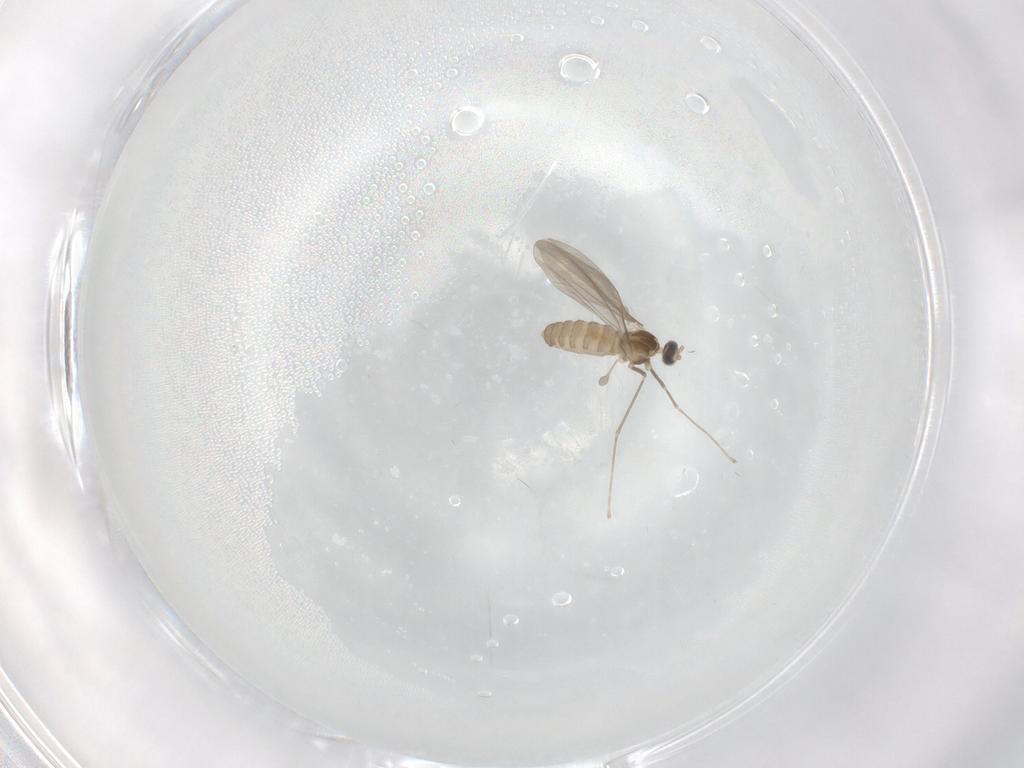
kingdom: Animalia
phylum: Arthropoda
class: Insecta
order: Diptera
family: Cecidomyiidae
